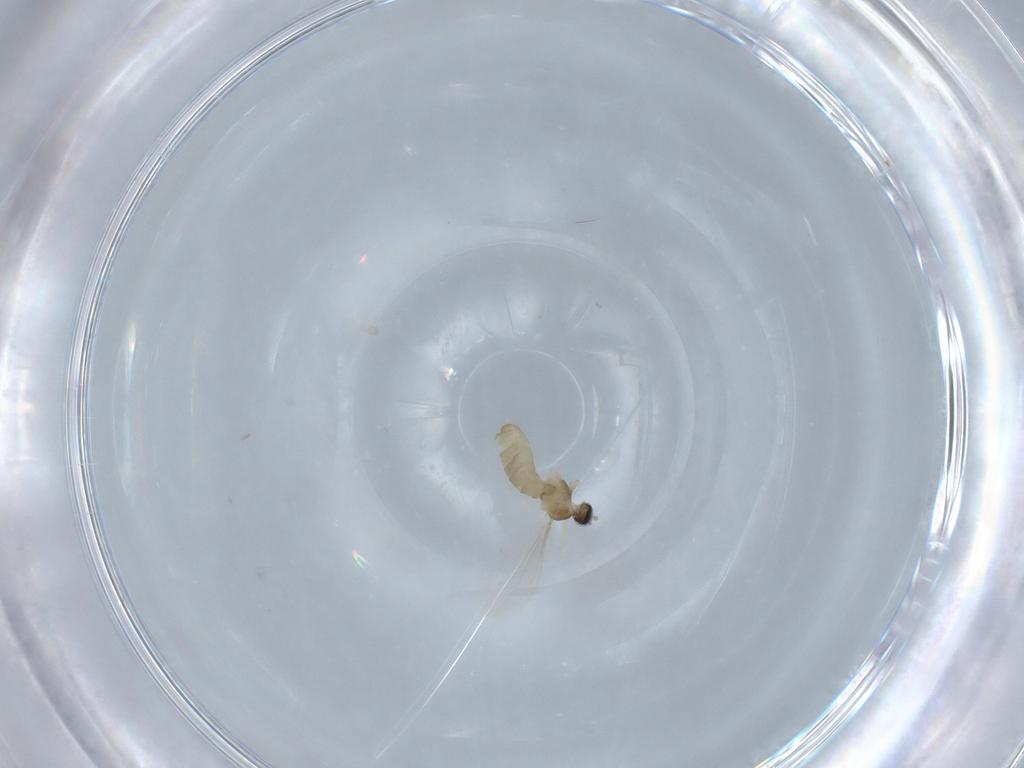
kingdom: Animalia
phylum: Arthropoda
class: Insecta
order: Diptera
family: Cecidomyiidae
